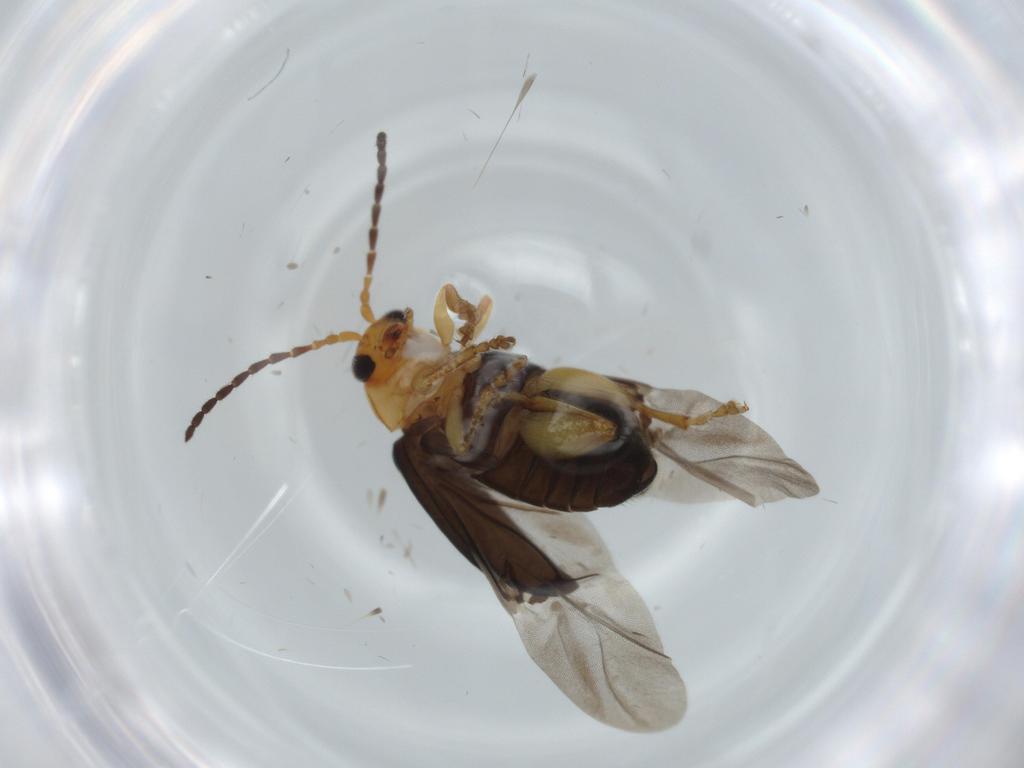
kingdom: Animalia
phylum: Arthropoda
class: Insecta
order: Coleoptera
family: Chrysomelidae
